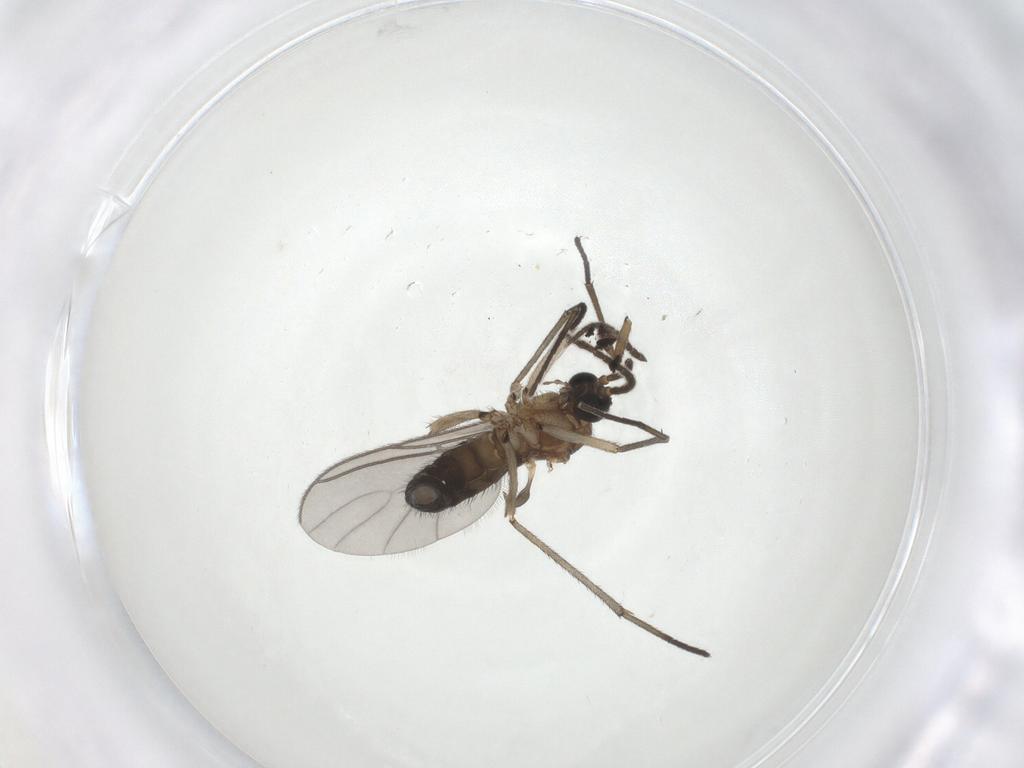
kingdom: Animalia
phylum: Arthropoda
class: Insecta
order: Diptera
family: Sciaridae
